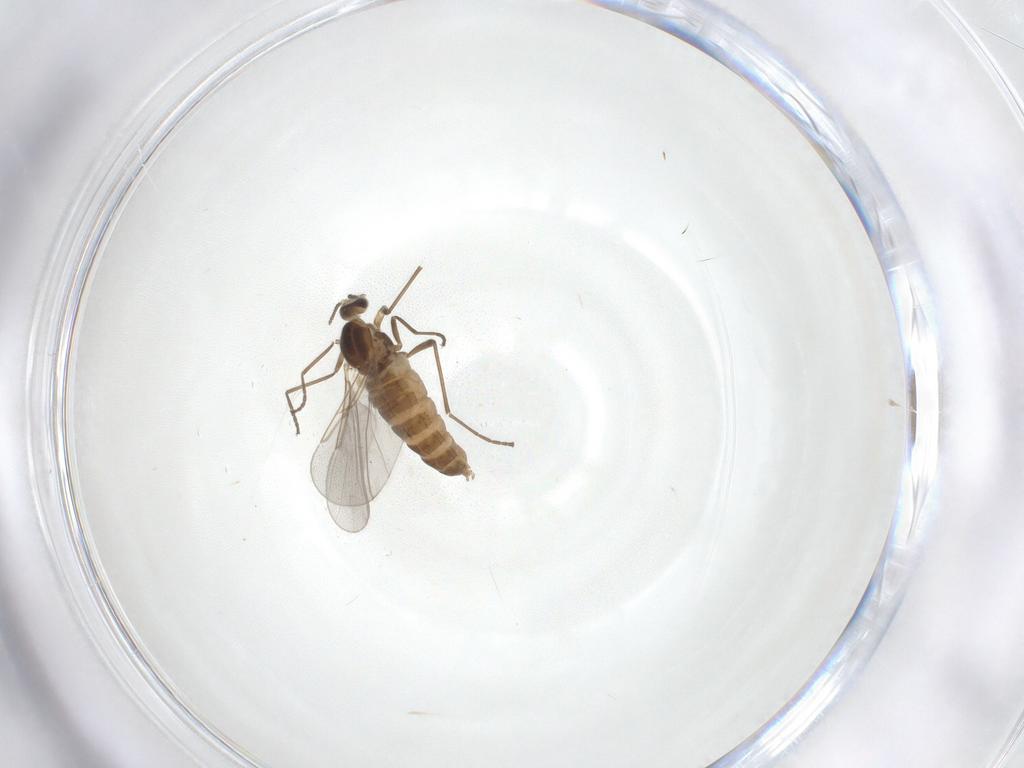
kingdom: Animalia
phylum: Arthropoda
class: Insecta
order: Diptera
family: Cecidomyiidae
